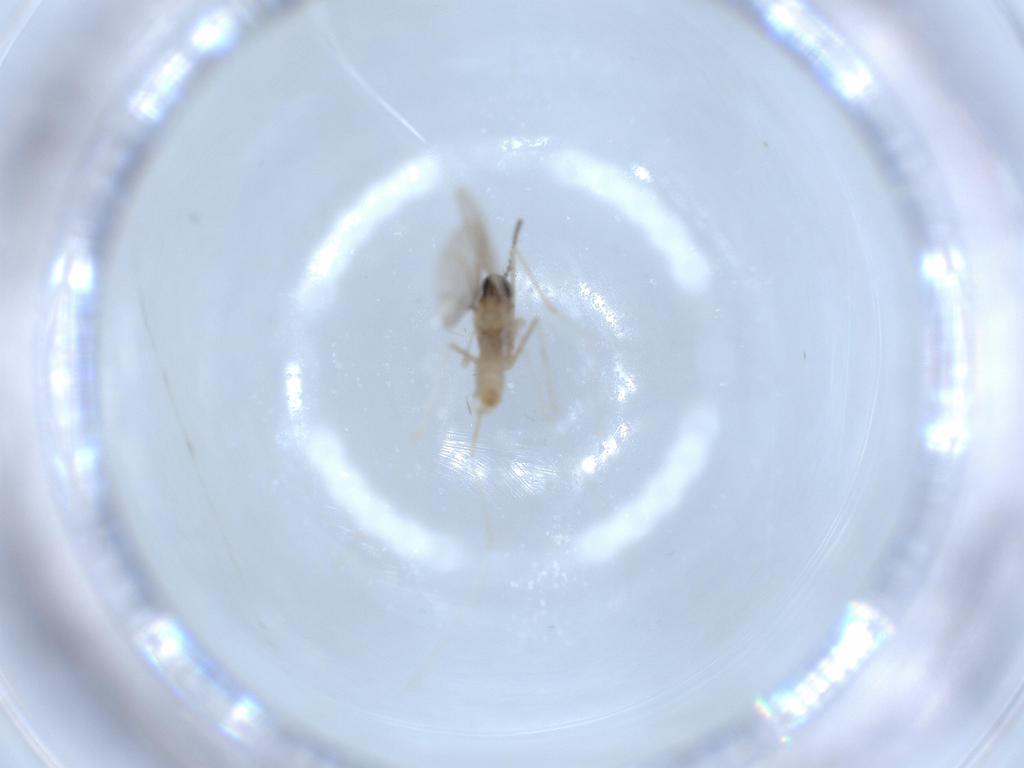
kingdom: Animalia
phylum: Arthropoda
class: Insecta
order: Diptera
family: Cecidomyiidae
